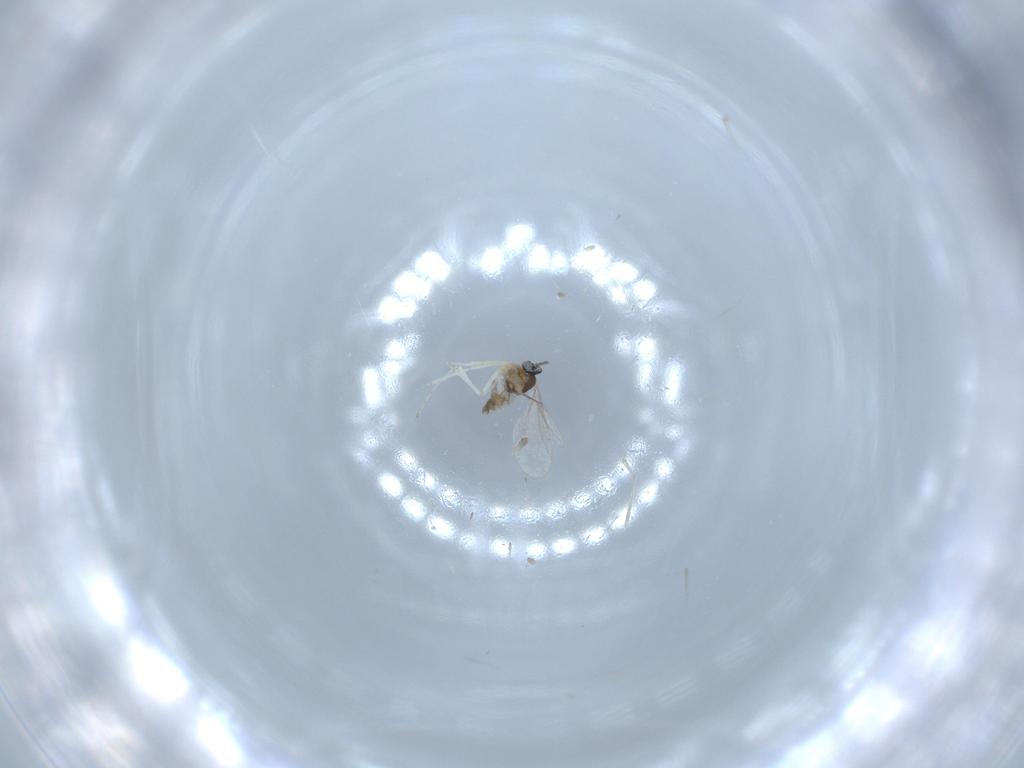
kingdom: Animalia
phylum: Arthropoda
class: Insecta
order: Diptera
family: Cecidomyiidae
